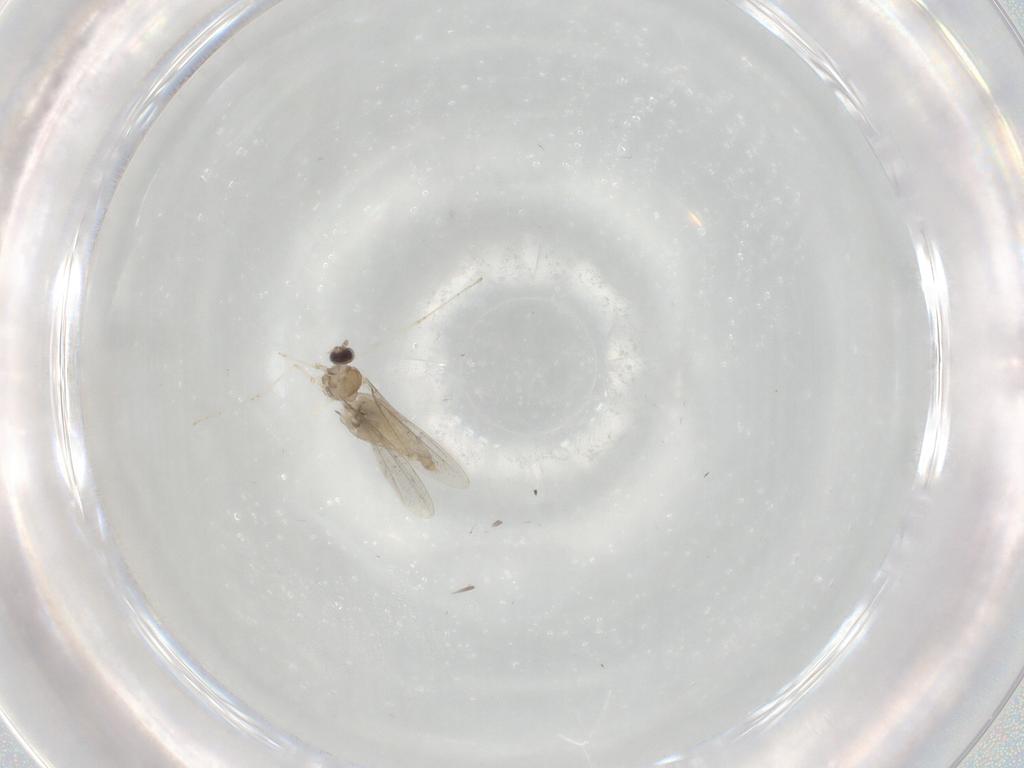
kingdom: Animalia
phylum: Arthropoda
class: Insecta
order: Diptera
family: Cecidomyiidae
